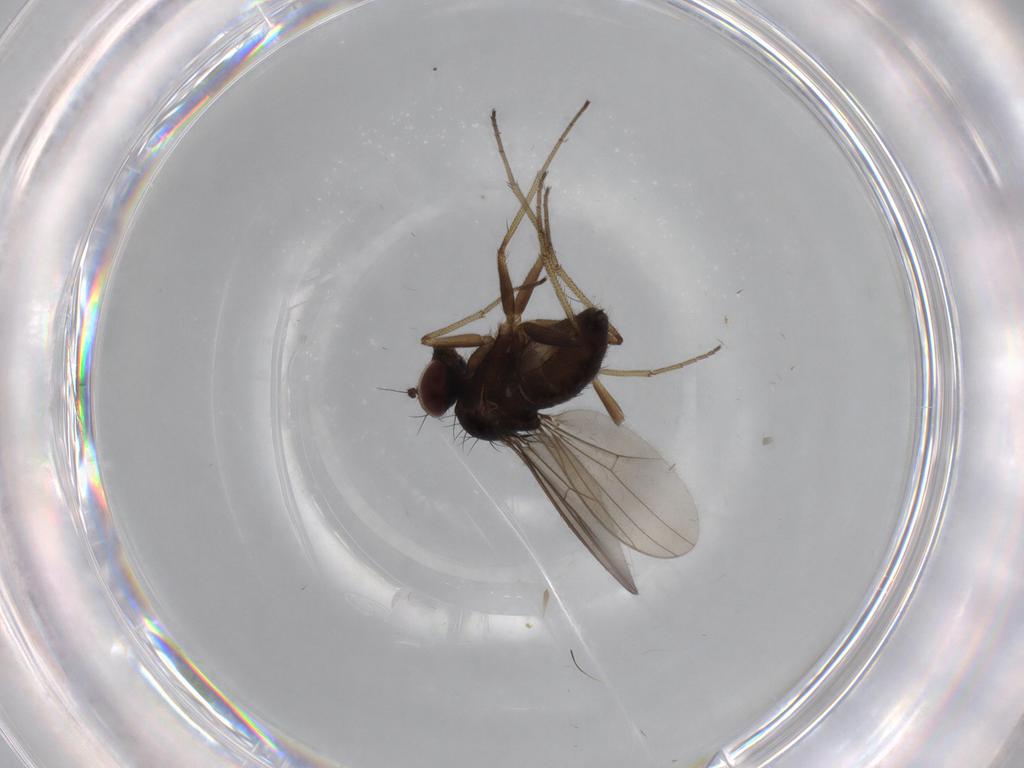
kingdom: Animalia
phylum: Arthropoda
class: Insecta
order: Diptera
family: Dolichopodidae
